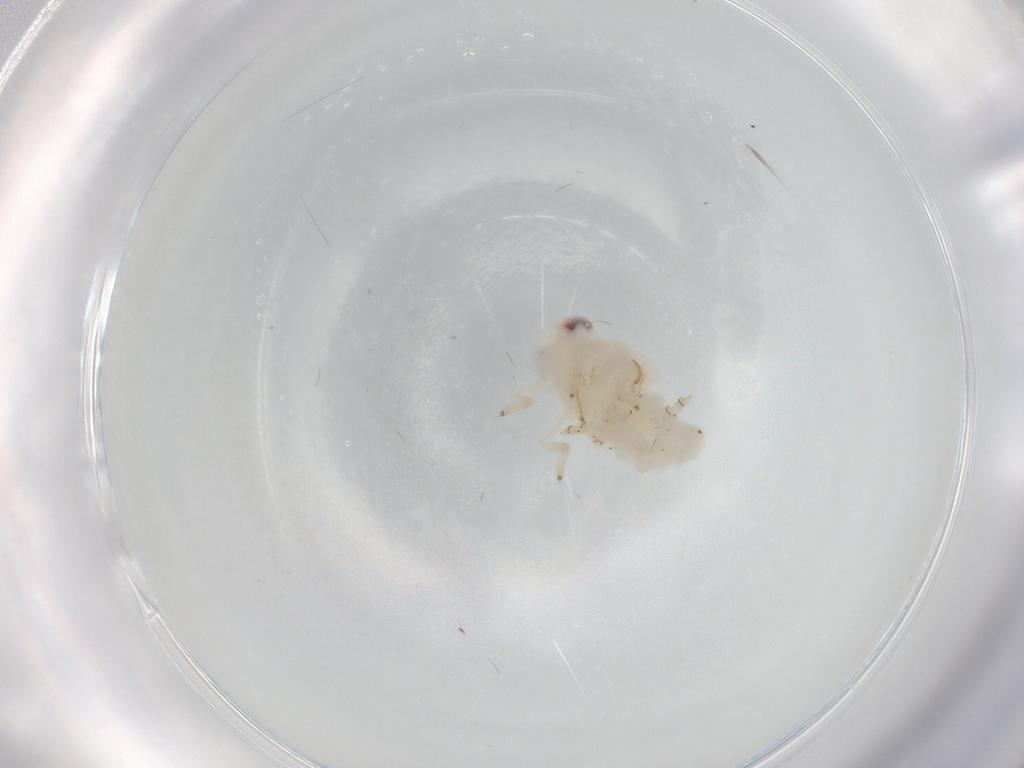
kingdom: Animalia
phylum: Arthropoda
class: Insecta
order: Hemiptera
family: Nogodinidae
